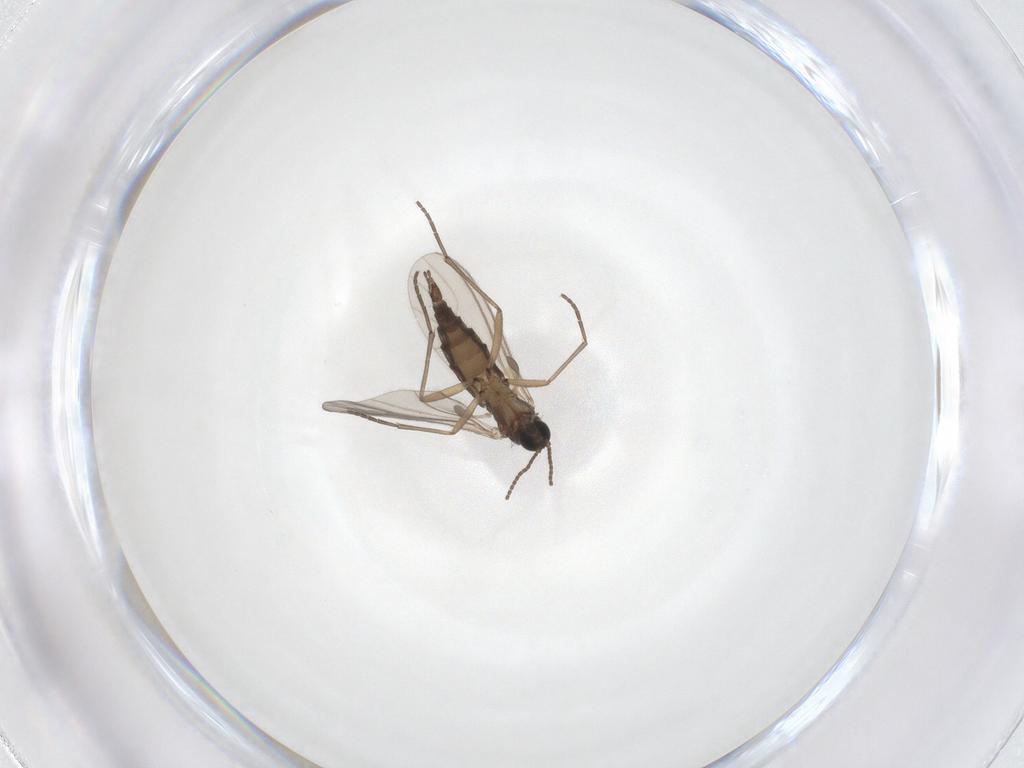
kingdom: Animalia
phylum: Arthropoda
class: Insecta
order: Diptera
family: Sciaridae
